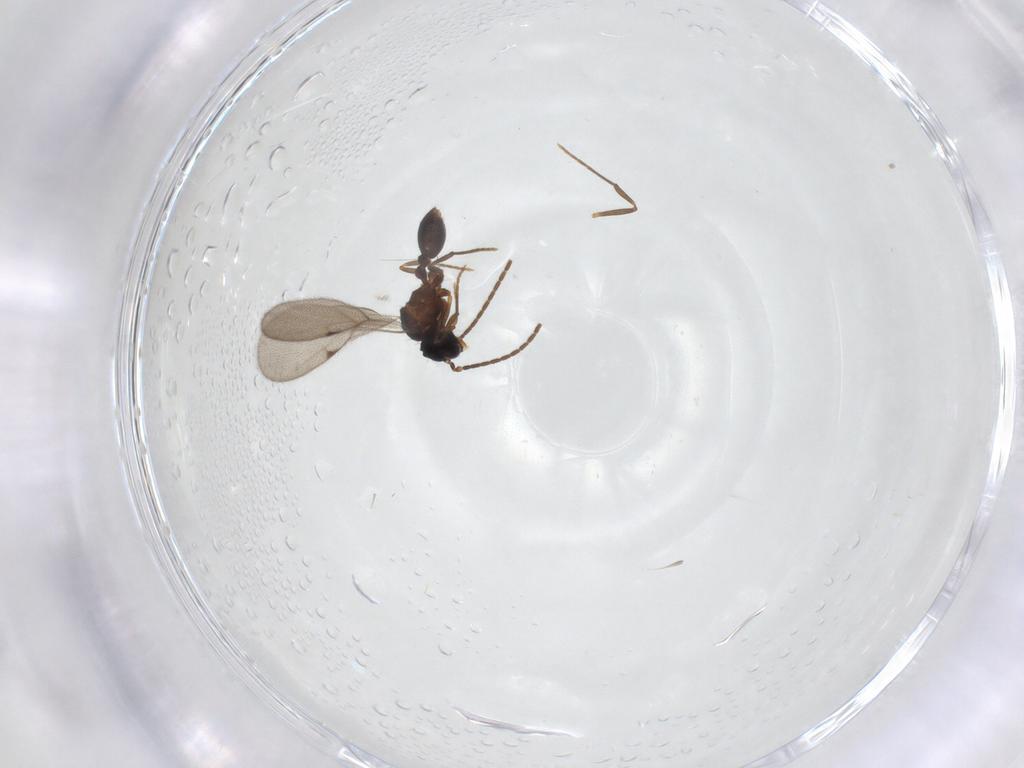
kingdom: Animalia
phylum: Arthropoda
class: Insecta
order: Hymenoptera
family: Formicidae
